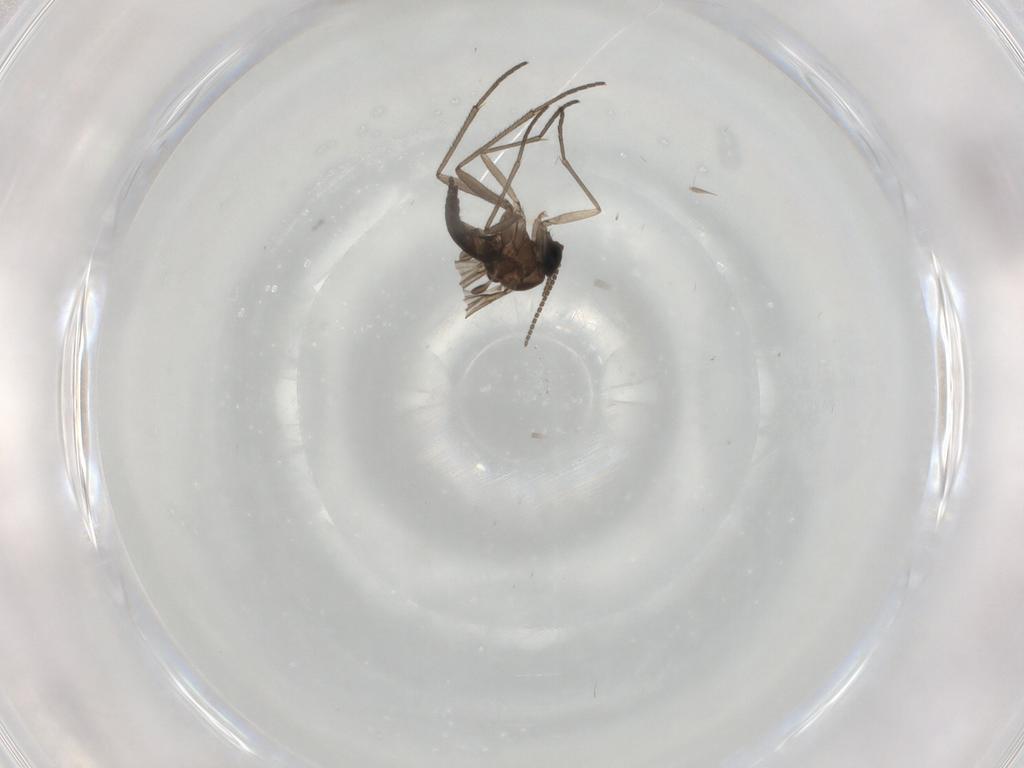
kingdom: Animalia
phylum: Arthropoda
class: Insecta
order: Diptera
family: Sciaridae
